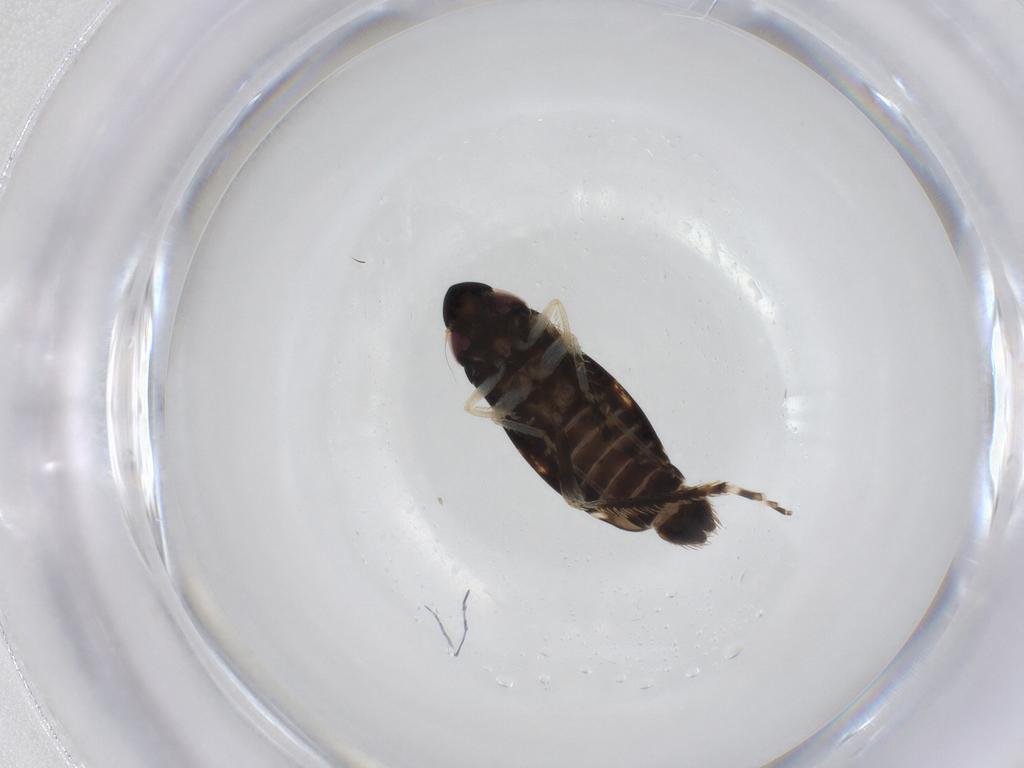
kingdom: Animalia
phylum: Arthropoda
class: Insecta
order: Hemiptera
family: Cicadellidae
